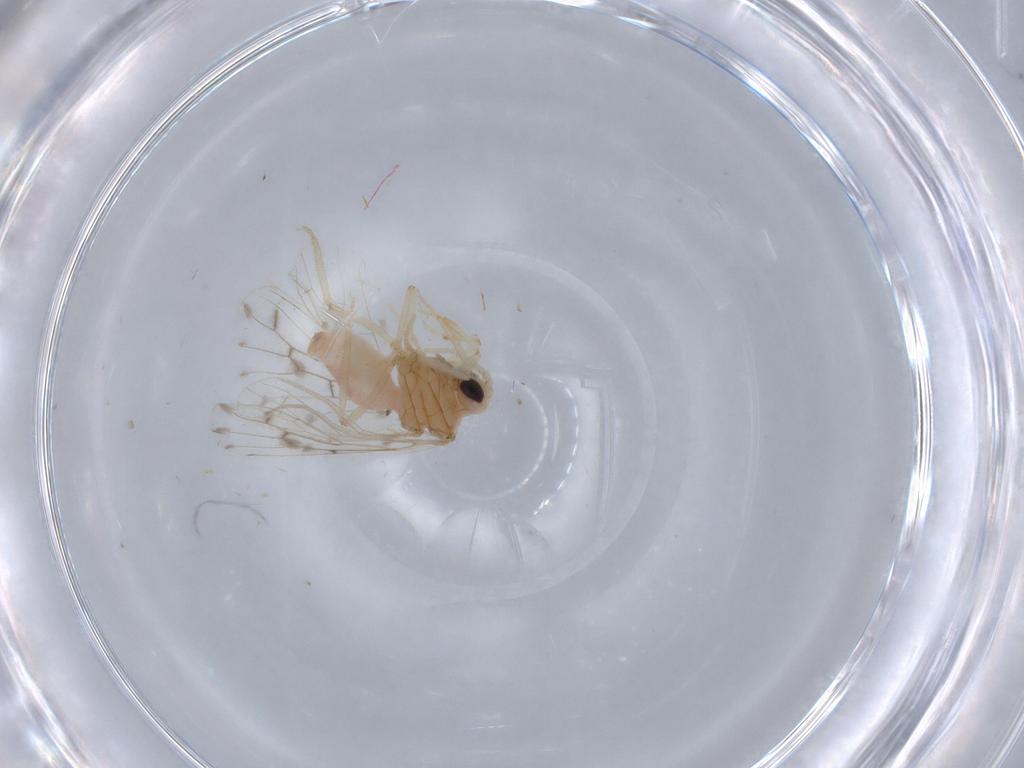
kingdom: Animalia
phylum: Arthropoda
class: Insecta
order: Neuroptera
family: Coniopterygidae
